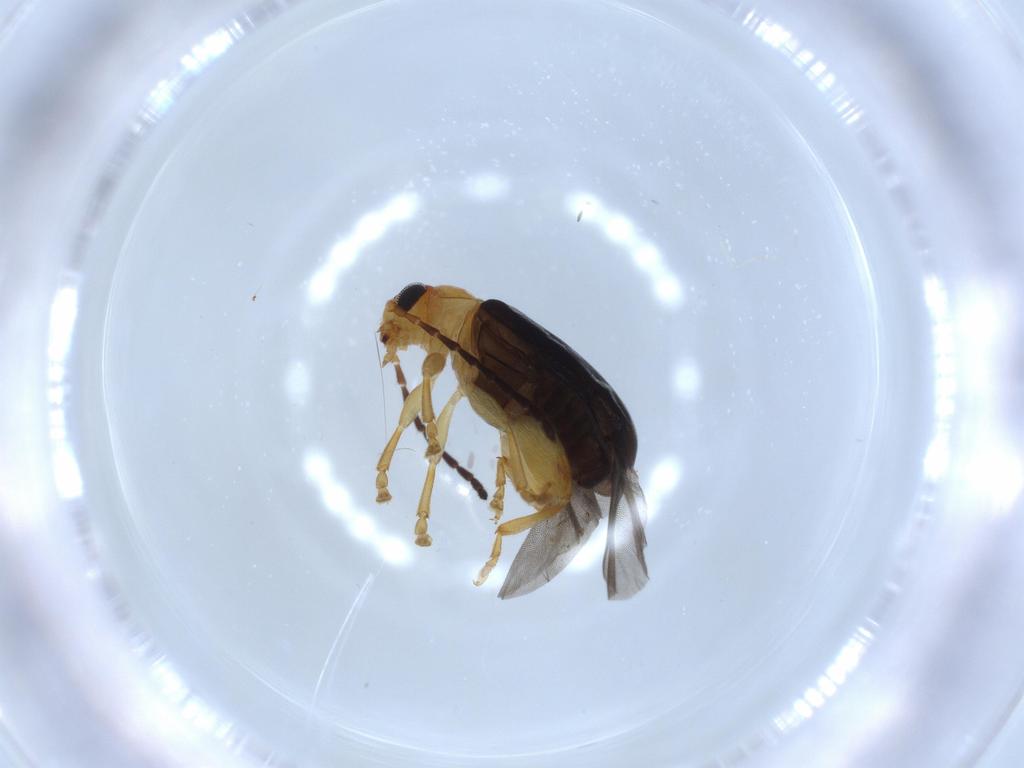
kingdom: Animalia
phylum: Arthropoda
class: Insecta
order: Coleoptera
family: Chrysomelidae
